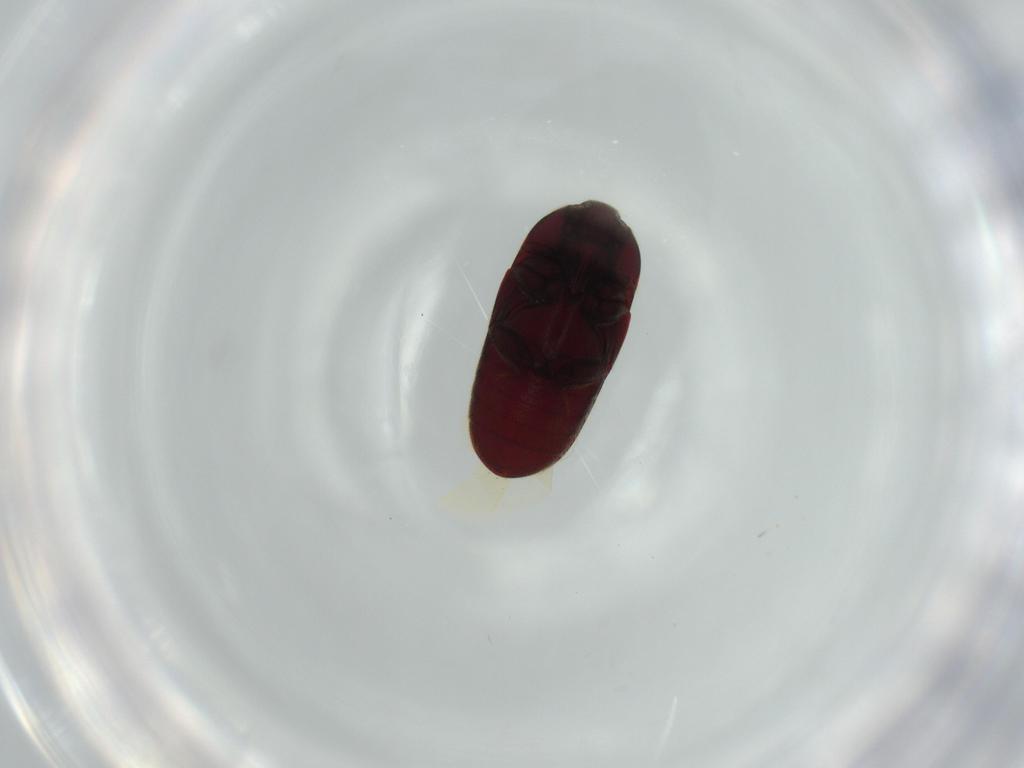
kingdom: Animalia
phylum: Arthropoda
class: Insecta
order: Coleoptera
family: Throscidae
